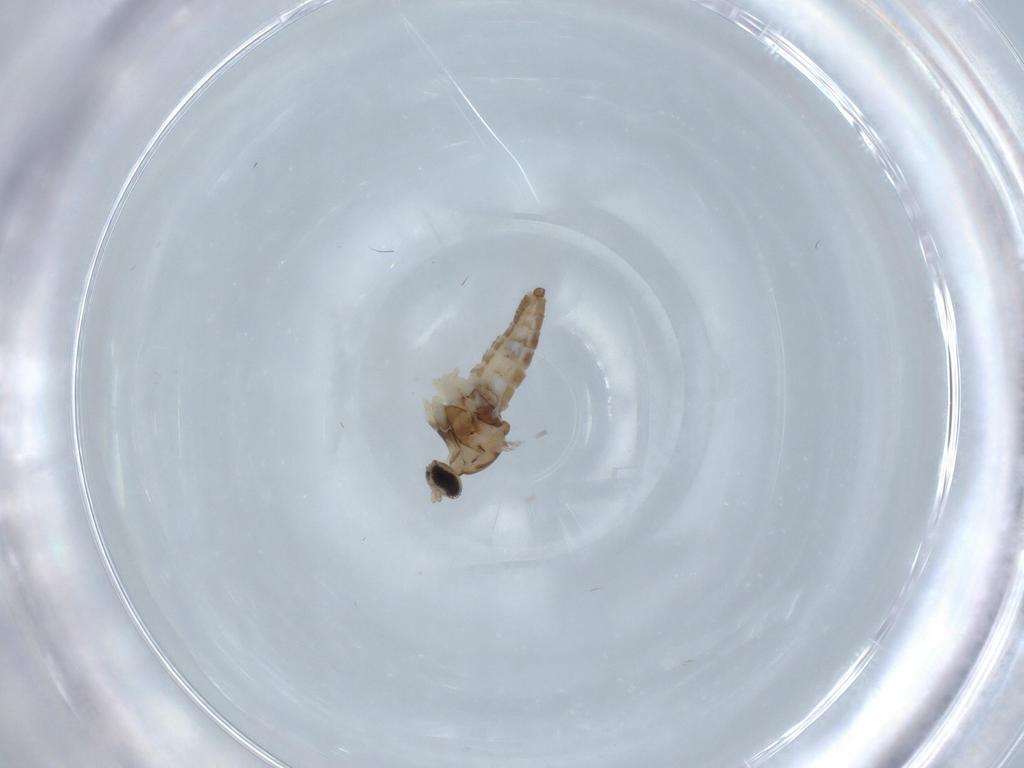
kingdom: Animalia
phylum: Arthropoda
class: Insecta
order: Diptera
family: Cecidomyiidae
